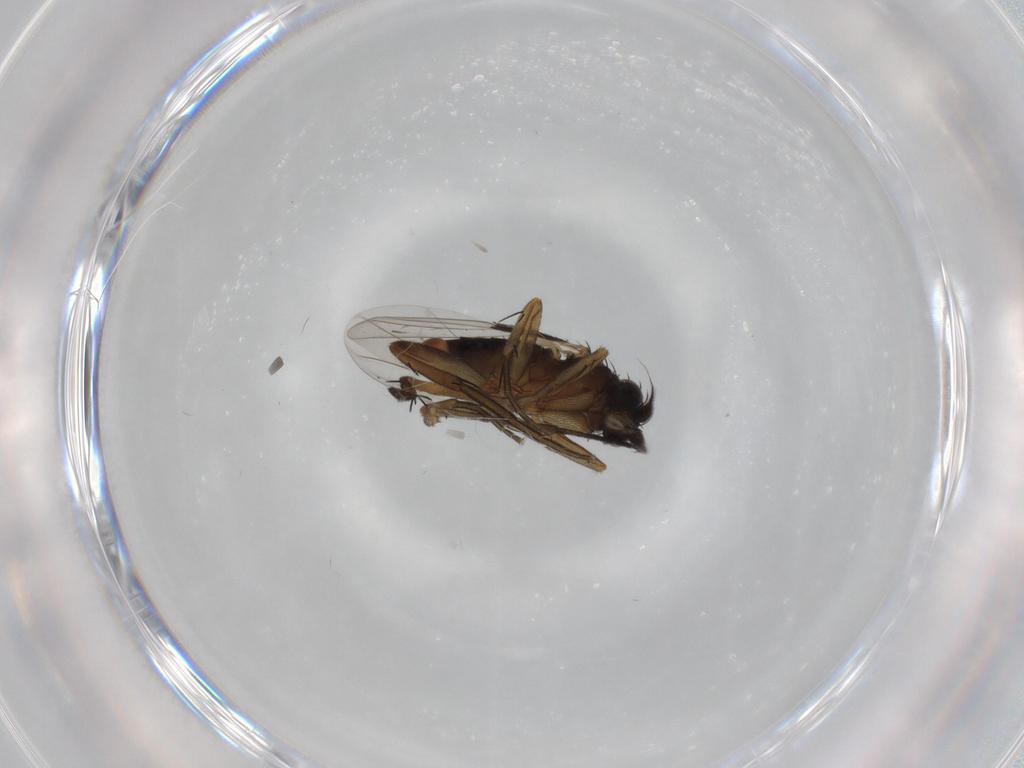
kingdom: Animalia
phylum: Arthropoda
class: Insecta
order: Diptera
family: Phoridae
